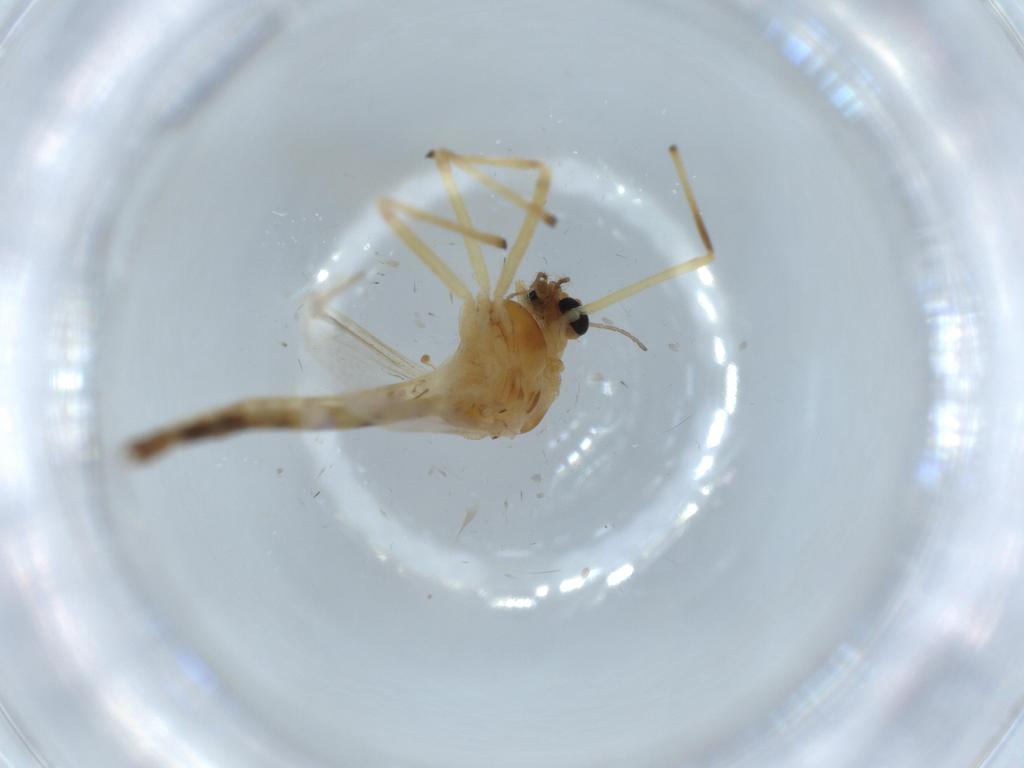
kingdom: Animalia
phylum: Arthropoda
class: Insecta
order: Diptera
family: Chironomidae
